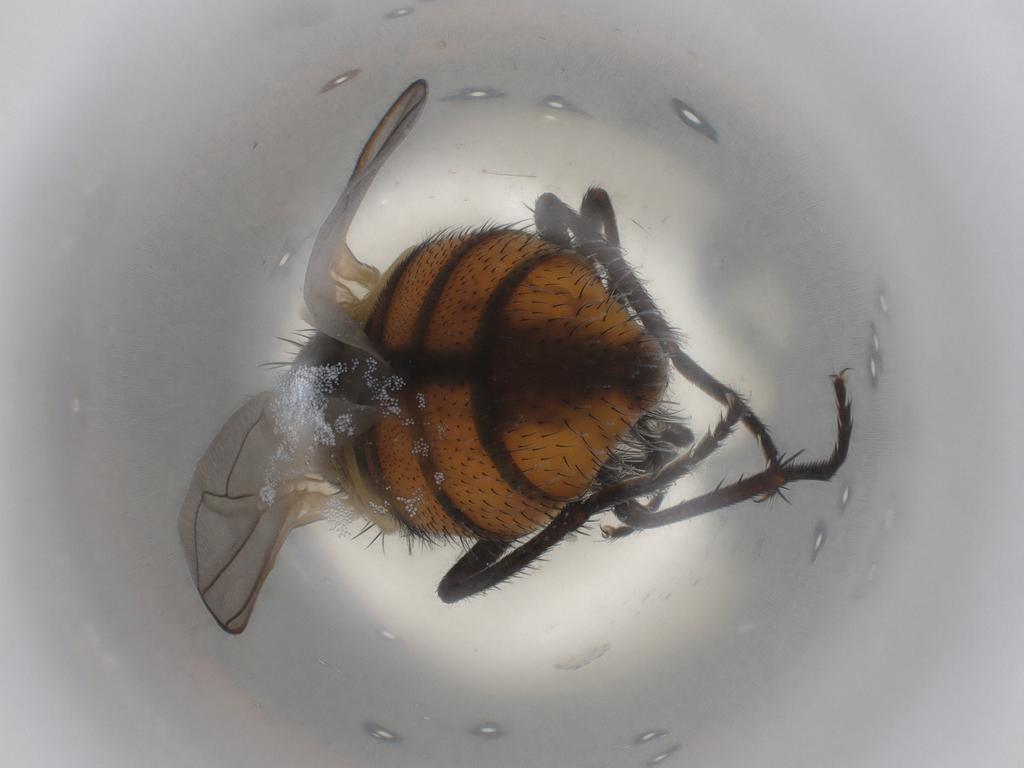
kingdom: Animalia
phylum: Arthropoda
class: Insecta
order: Diptera
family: Muscidae
